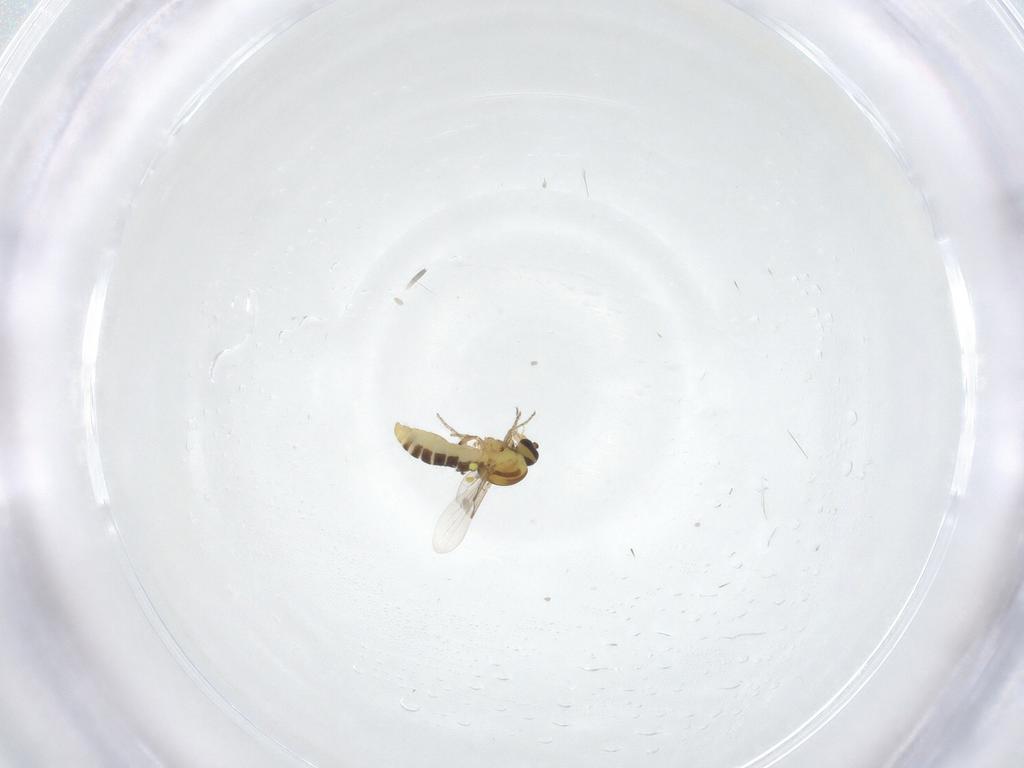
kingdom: Animalia
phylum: Arthropoda
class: Insecta
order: Diptera
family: Ceratopogonidae
